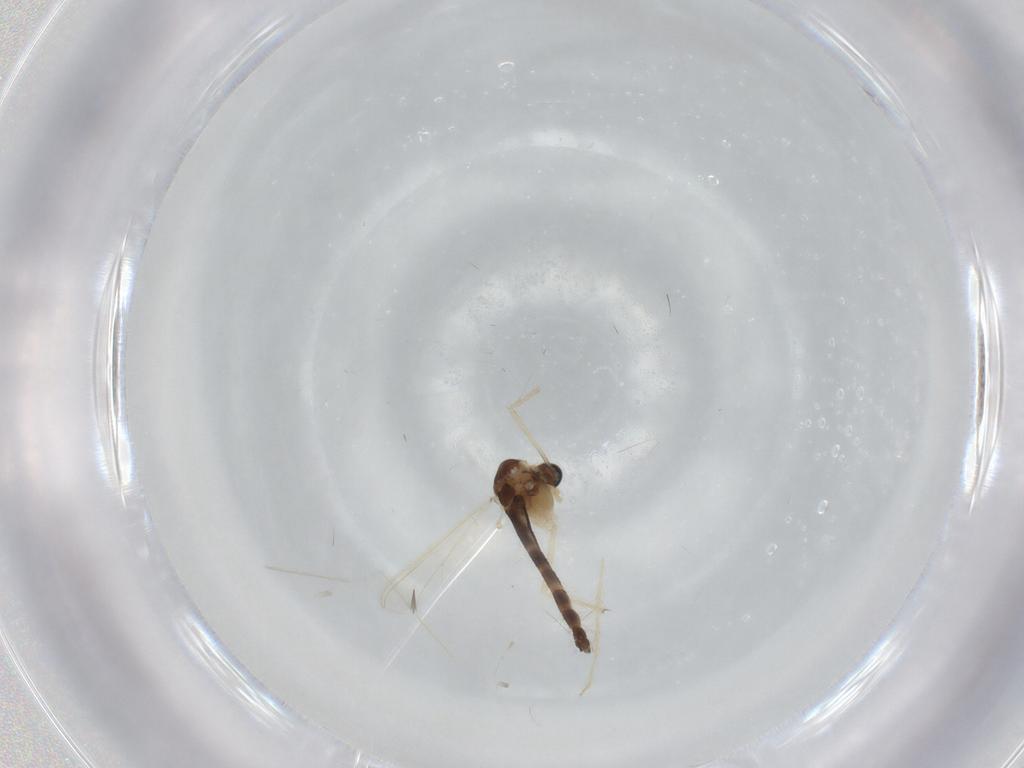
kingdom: Animalia
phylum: Arthropoda
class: Insecta
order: Diptera
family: Chironomidae
